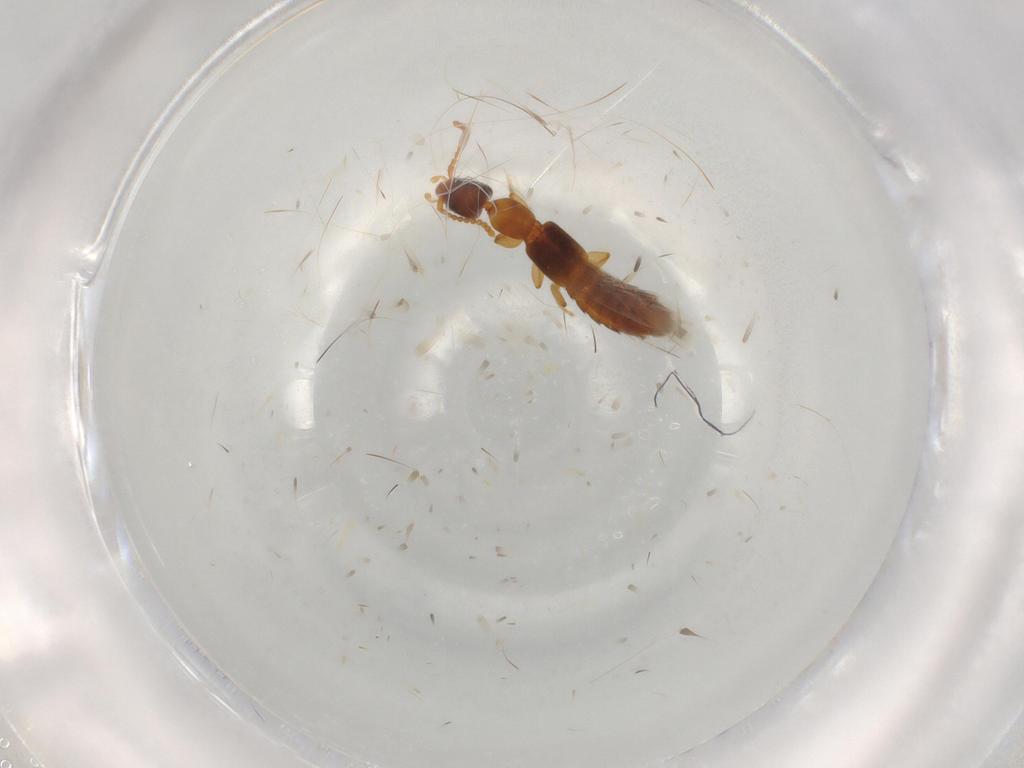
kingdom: Animalia
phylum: Arthropoda
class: Insecta
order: Coleoptera
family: Staphylinidae
